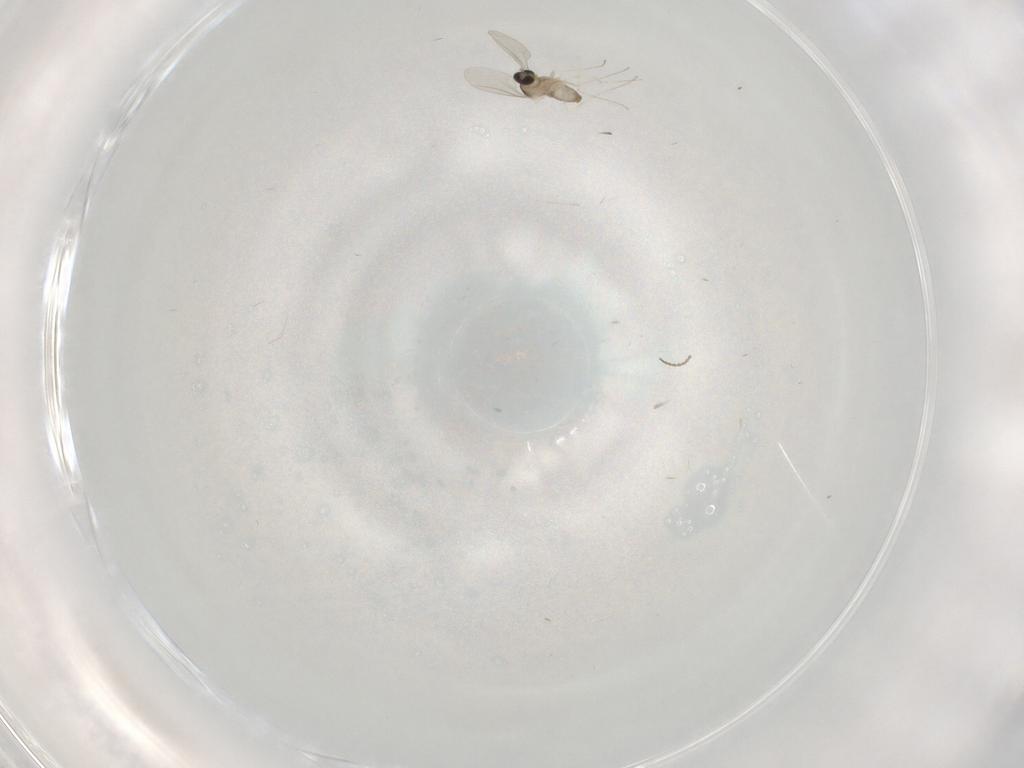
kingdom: Animalia
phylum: Arthropoda
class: Insecta
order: Diptera
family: Cecidomyiidae
